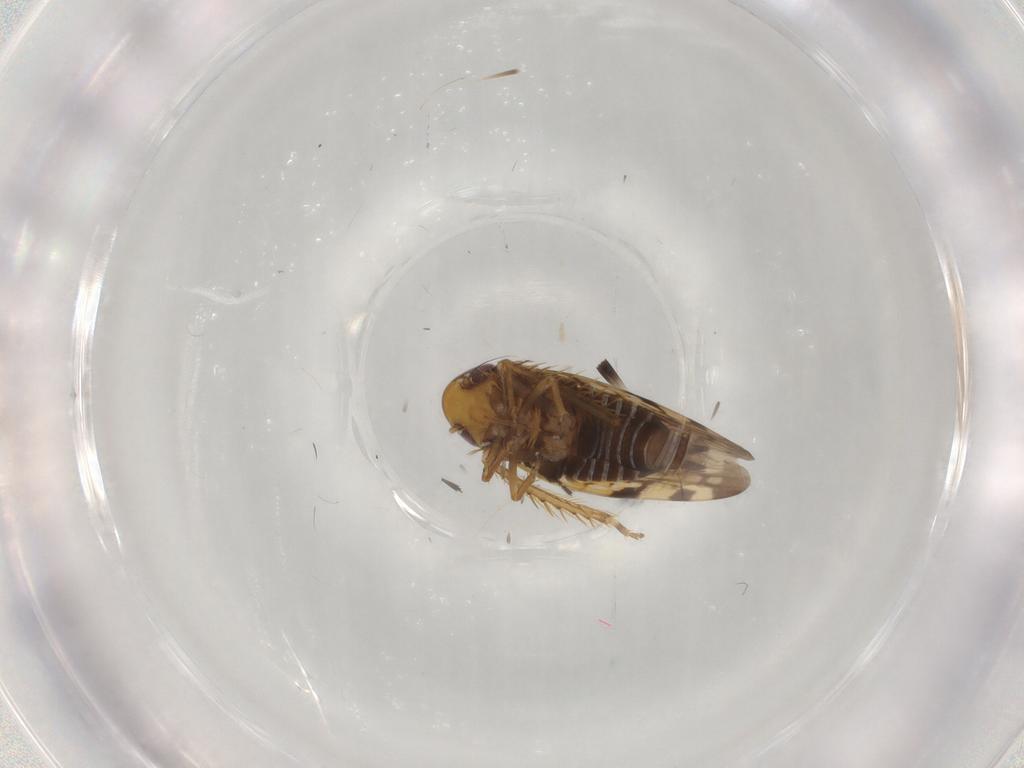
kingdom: Animalia
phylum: Arthropoda
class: Insecta
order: Hemiptera
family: Cicadellidae
